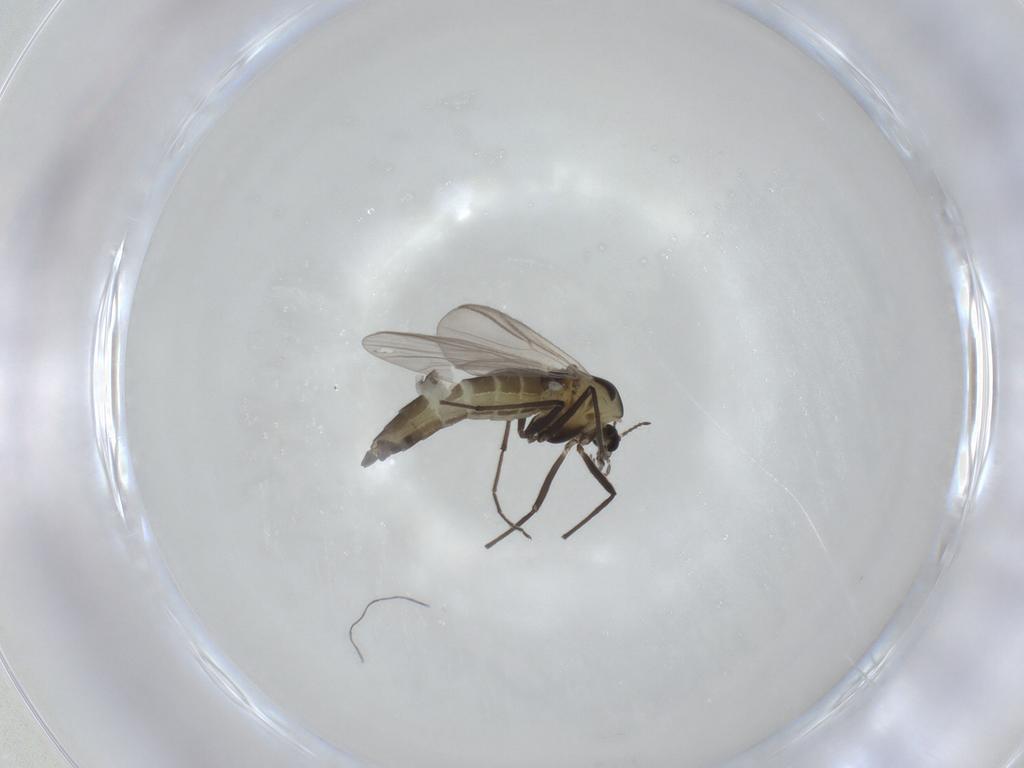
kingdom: Animalia
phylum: Arthropoda
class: Insecta
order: Diptera
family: Chironomidae
